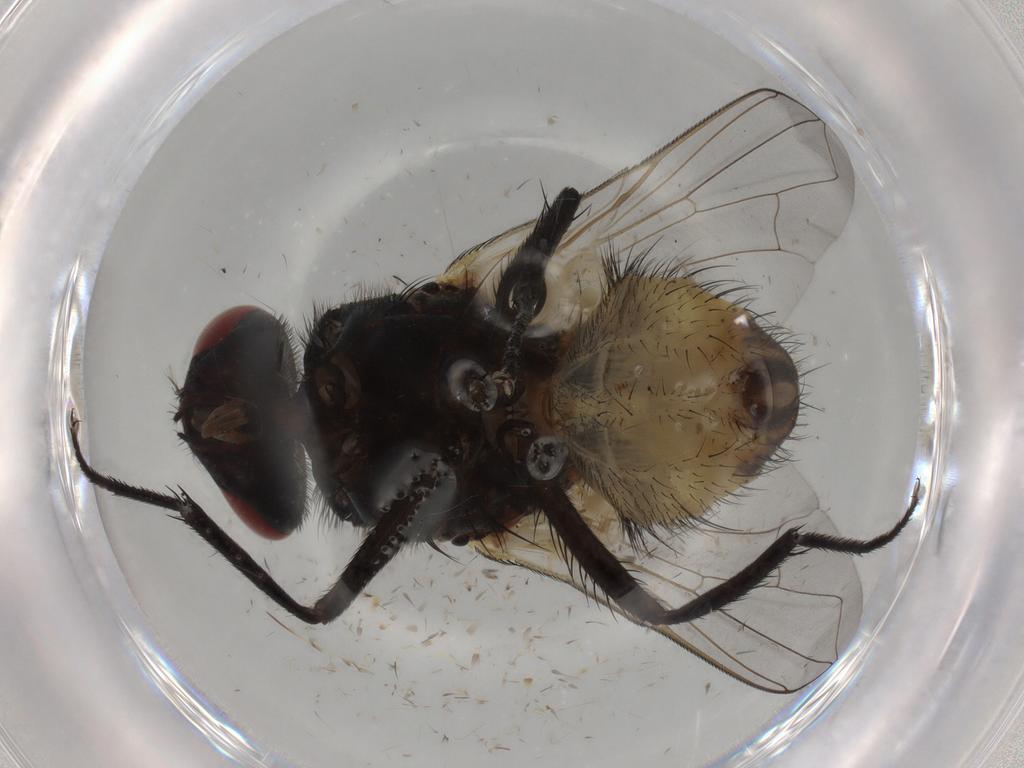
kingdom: Animalia
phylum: Arthropoda
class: Insecta
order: Diptera
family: Muscidae
